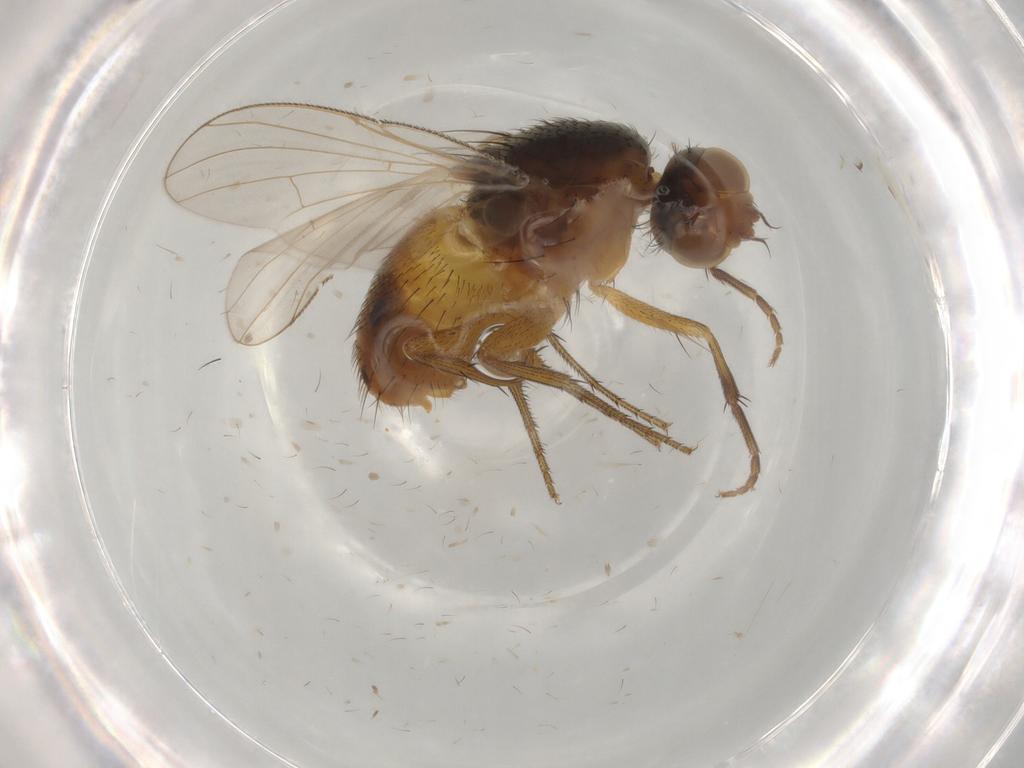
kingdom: Animalia
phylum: Arthropoda
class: Insecta
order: Diptera
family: Muscidae
